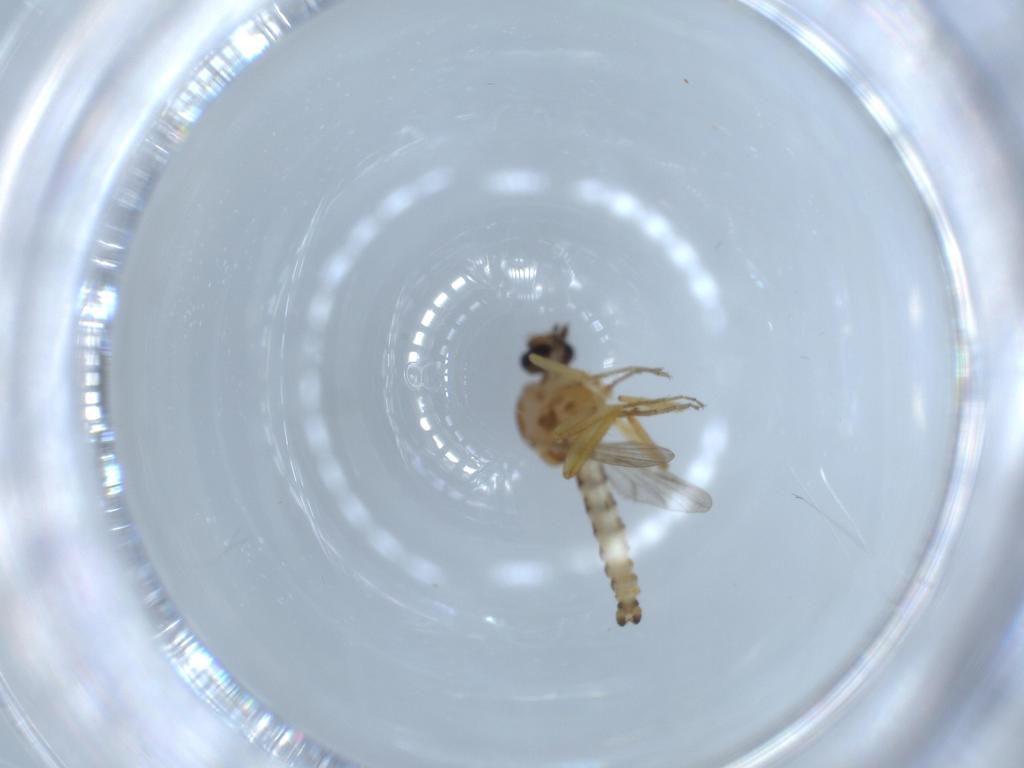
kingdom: Animalia
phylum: Arthropoda
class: Insecta
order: Diptera
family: Ceratopogonidae
